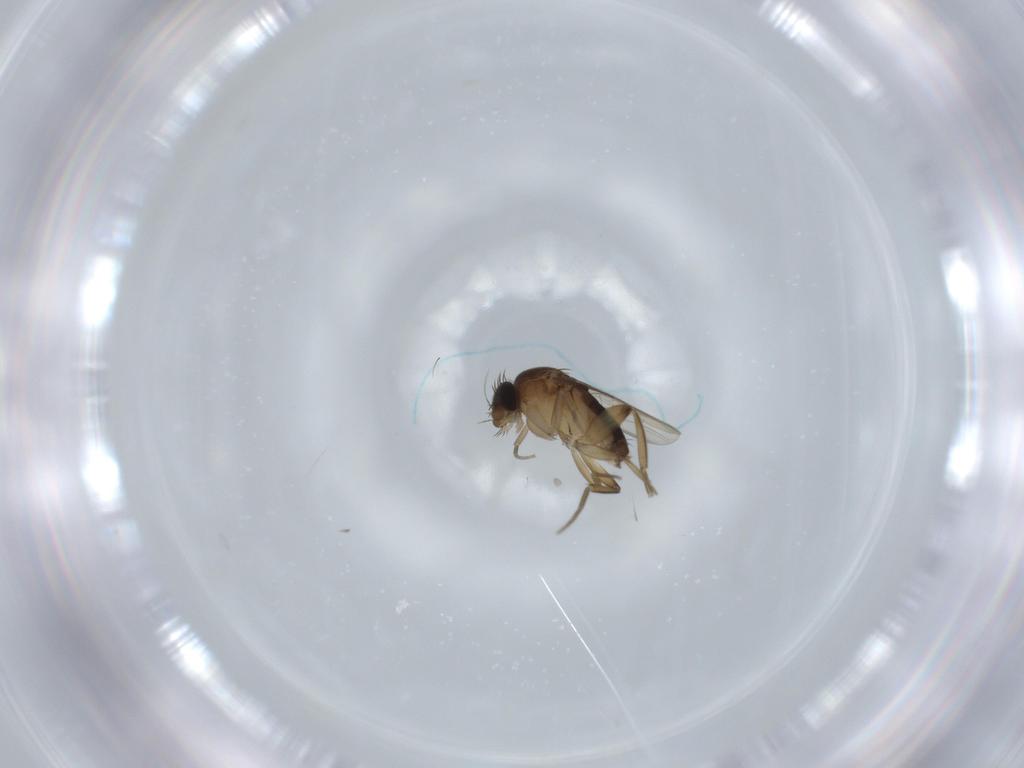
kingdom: Animalia
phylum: Arthropoda
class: Insecta
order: Diptera
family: Phoridae
